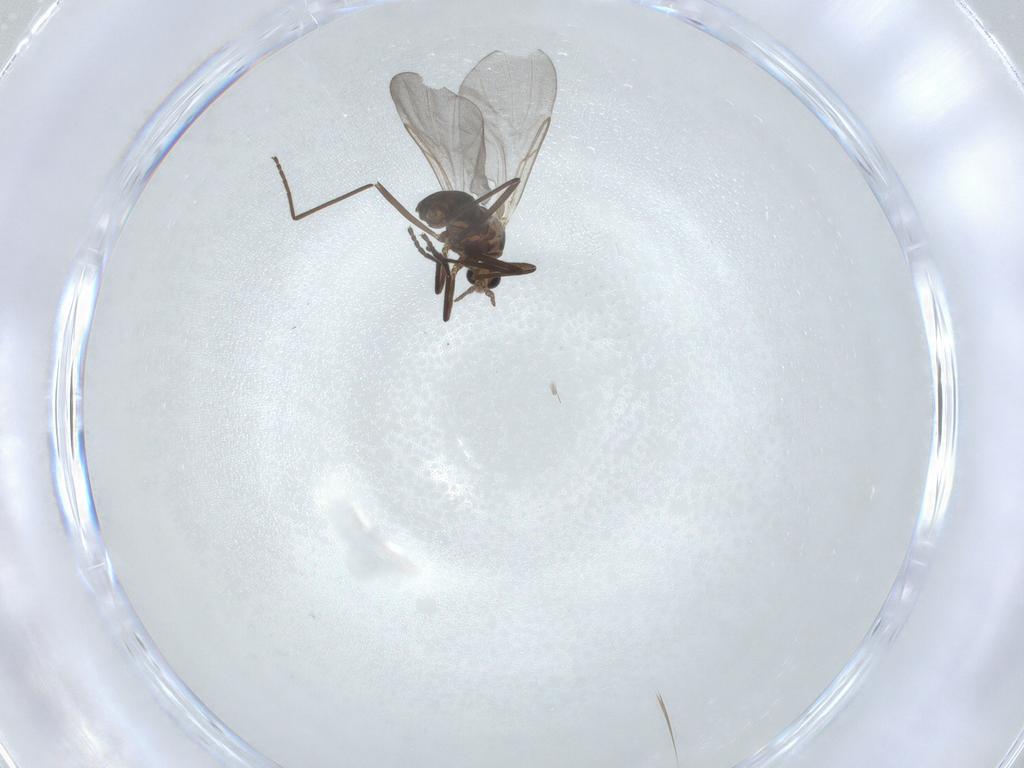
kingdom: Animalia
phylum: Arthropoda
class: Insecta
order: Diptera
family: Cecidomyiidae
